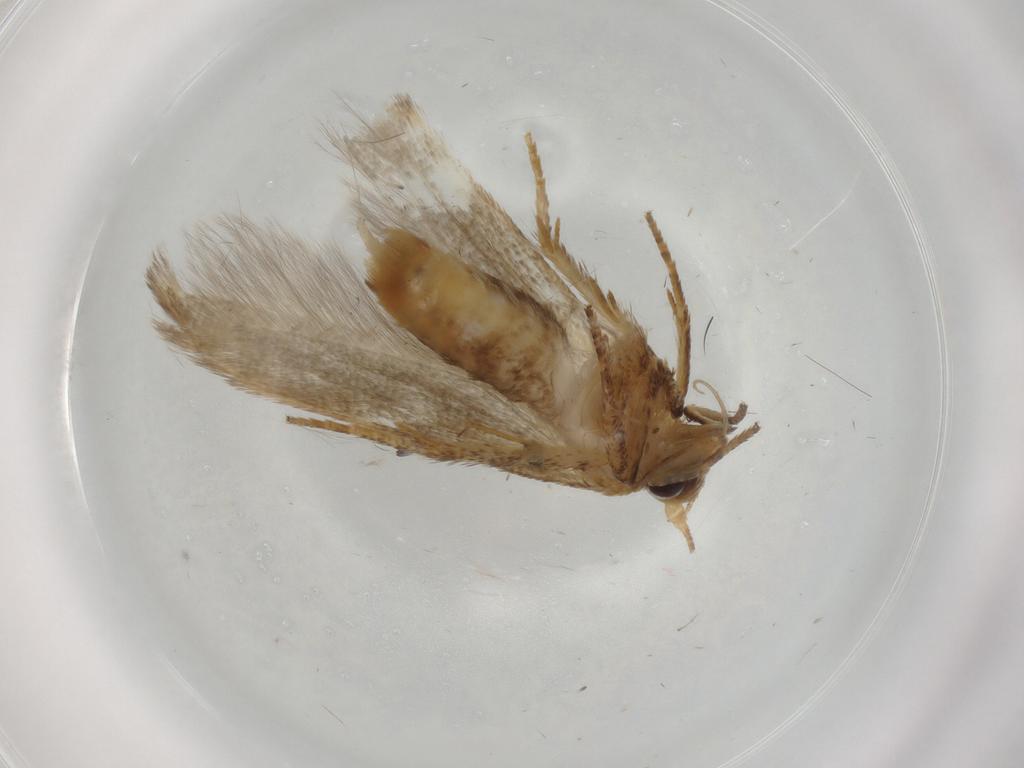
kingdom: Animalia
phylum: Arthropoda
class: Insecta
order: Lepidoptera
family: Blastobasidae
